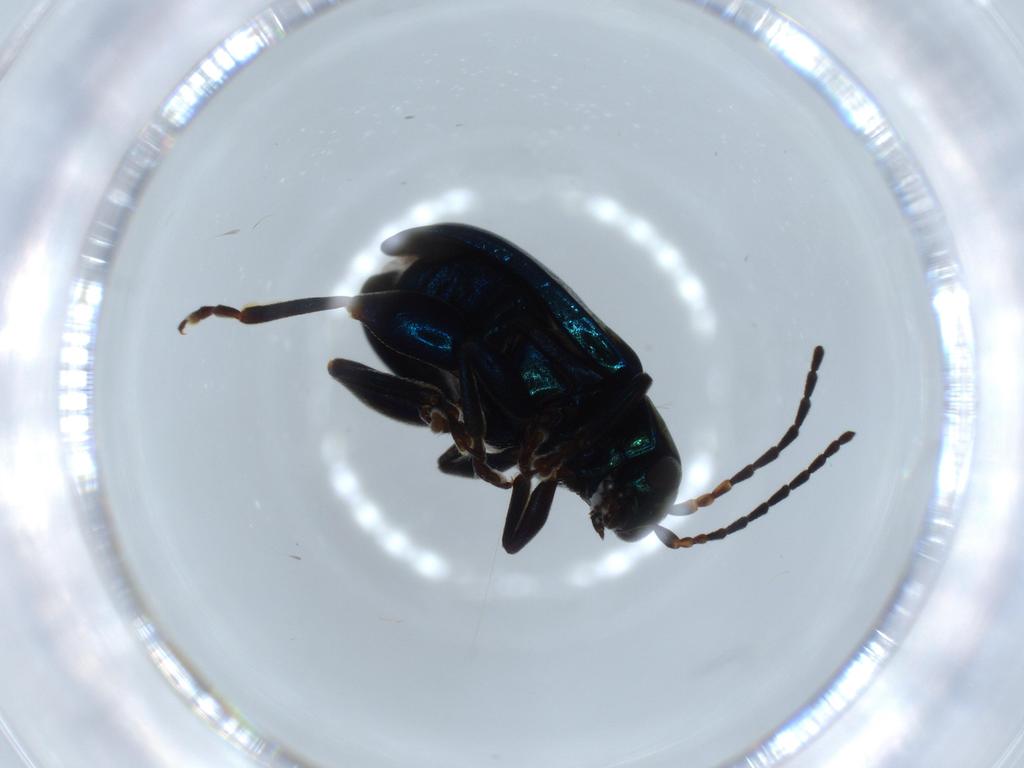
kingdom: Animalia
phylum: Arthropoda
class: Insecta
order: Coleoptera
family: Chrysomelidae
